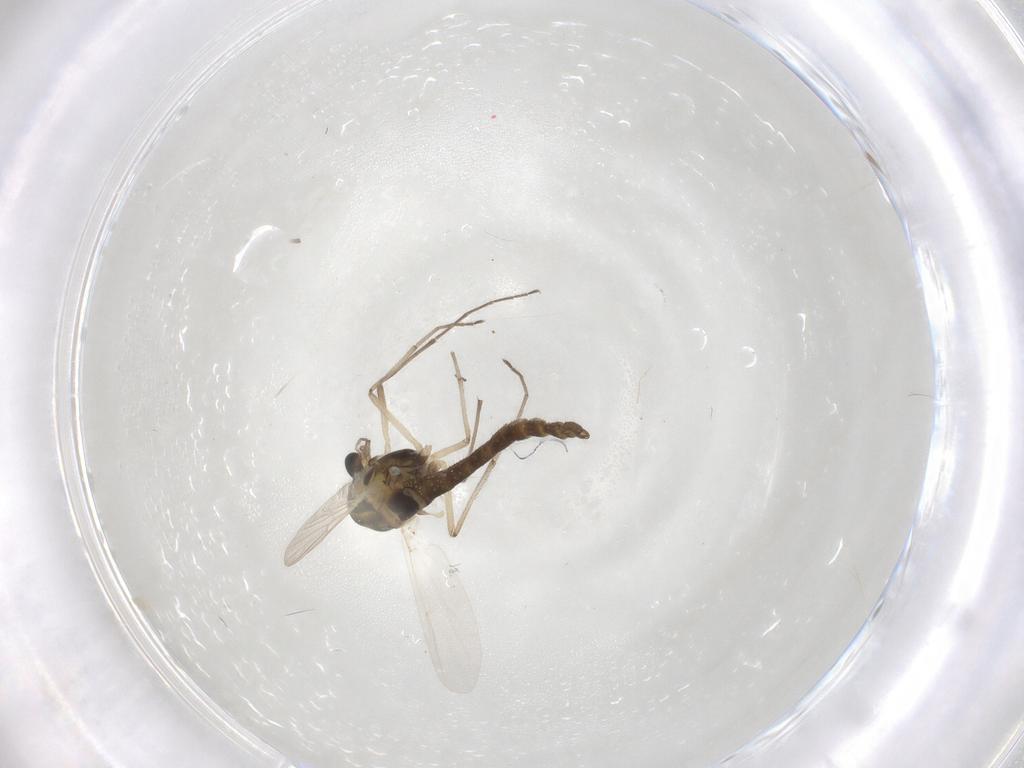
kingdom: Animalia
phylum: Arthropoda
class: Insecta
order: Diptera
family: Chironomidae
